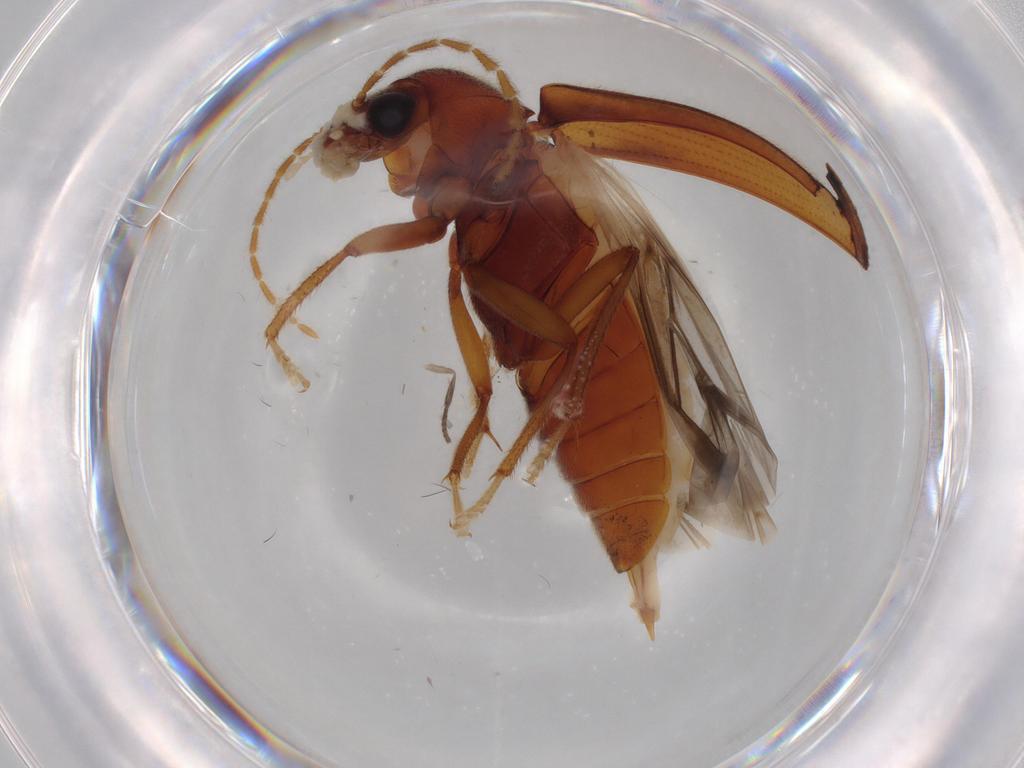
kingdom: Animalia
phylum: Arthropoda
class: Insecta
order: Coleoptera
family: Ptilodactylidae
